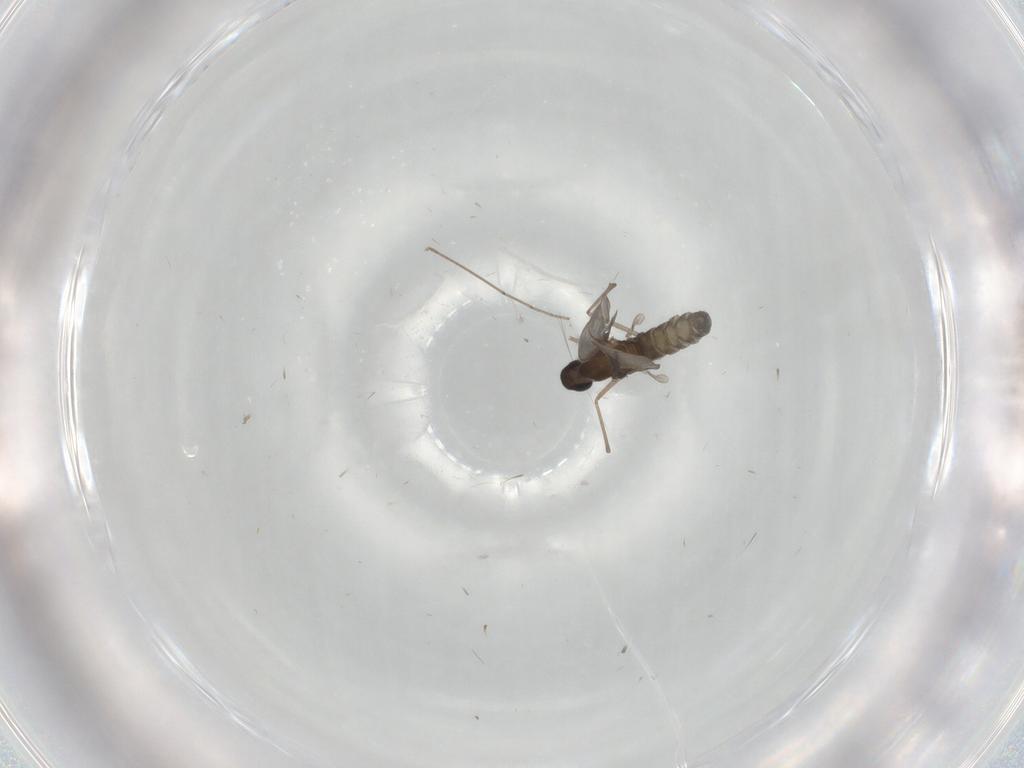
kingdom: Animalia
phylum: Arthropoda
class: Insecta
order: Diptera
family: Cecidomyiidae
